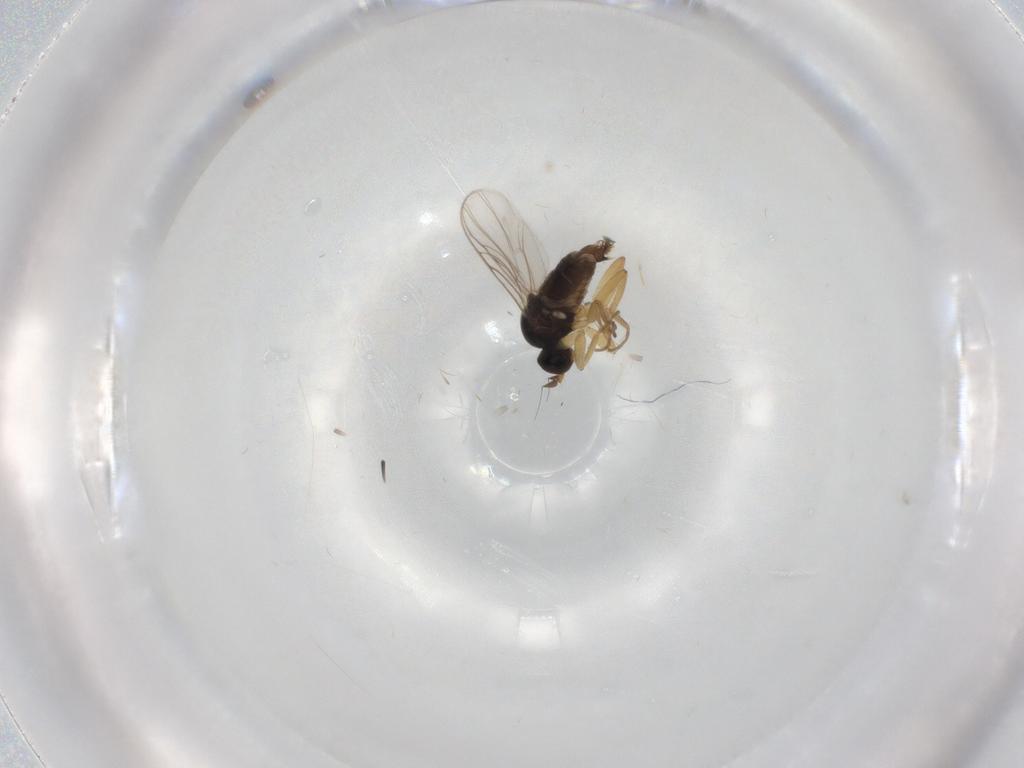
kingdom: Animalia
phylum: Arthropoda
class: Insecta
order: Diptera
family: Hybotidae
